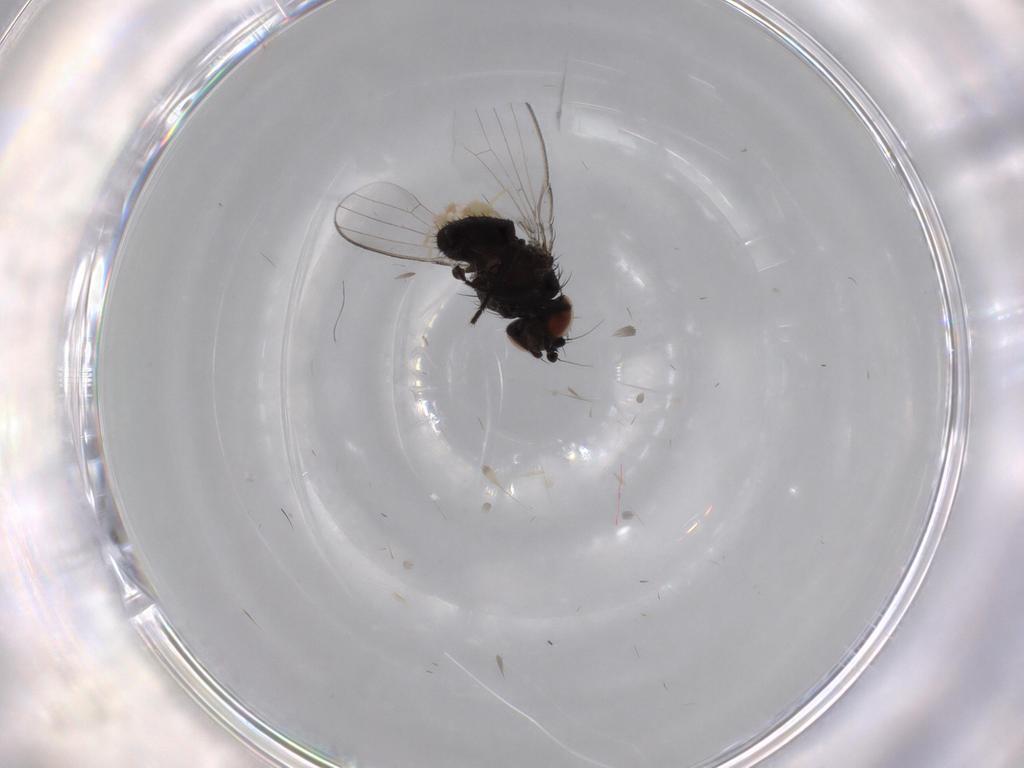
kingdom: Animalia
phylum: Arthropoda
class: Insecta
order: Diptera
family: Milichiidae
